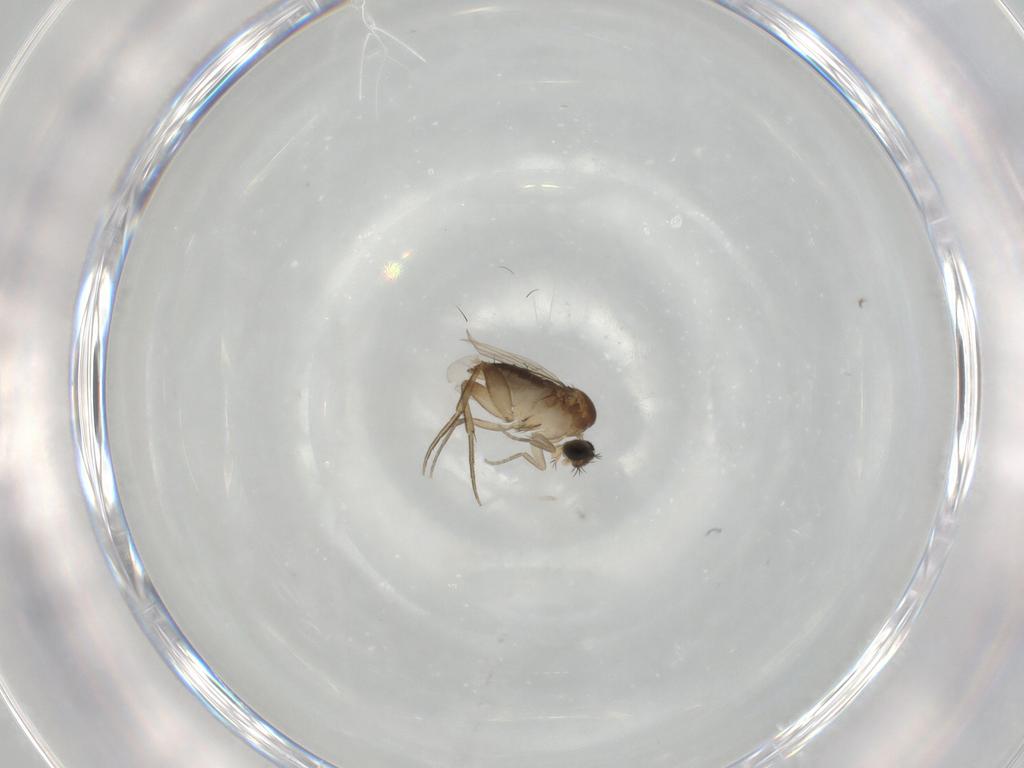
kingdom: Animalia
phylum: Arthropoda
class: Insecta
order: Diptera
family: Phoridae
